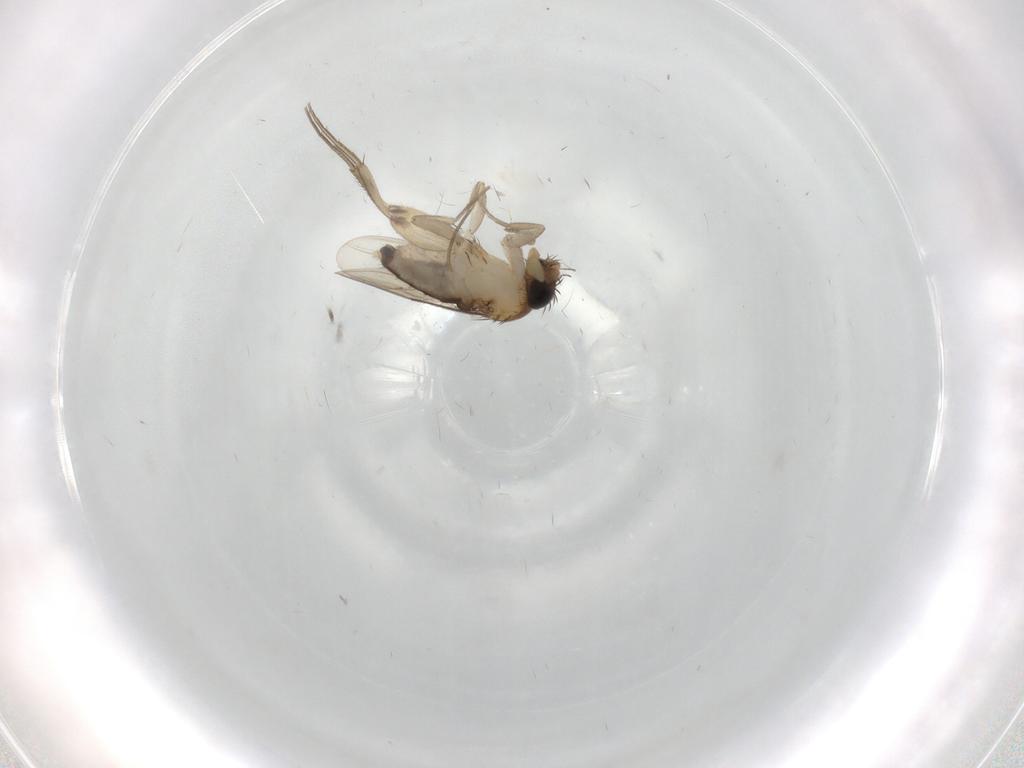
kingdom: Animalia
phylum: Arthropoda
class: Insecta
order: Diptera
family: Phoridae
